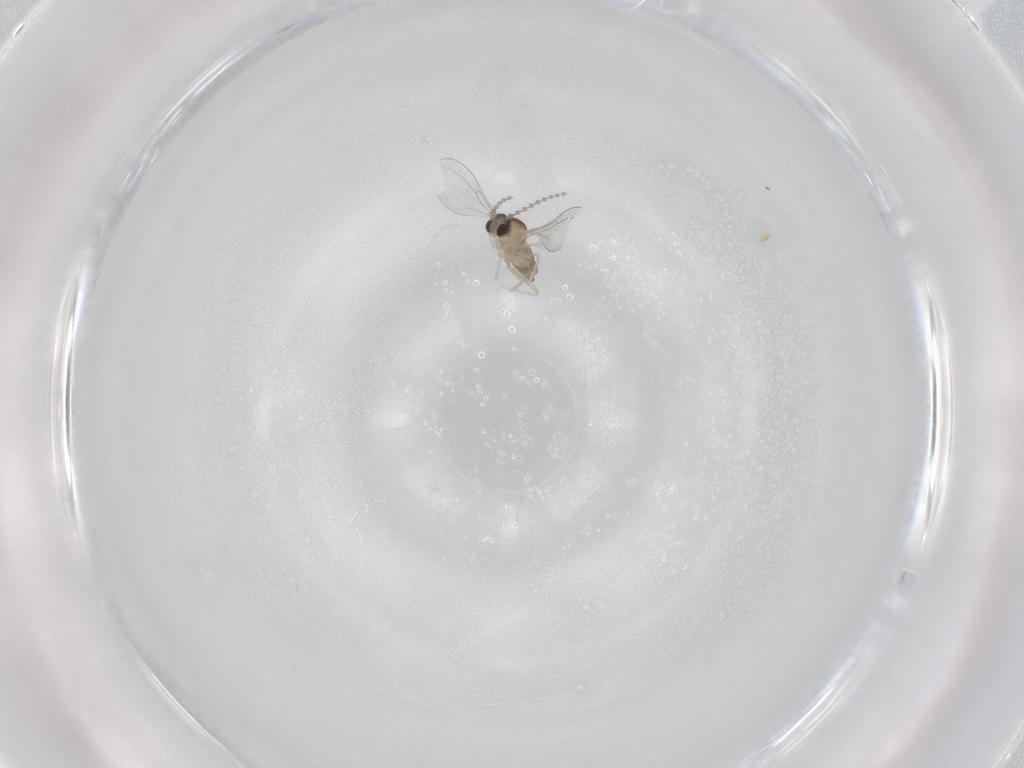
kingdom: Animalia
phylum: Arthropoda
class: Insecta
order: Diptera
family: Cecidomyiidae
